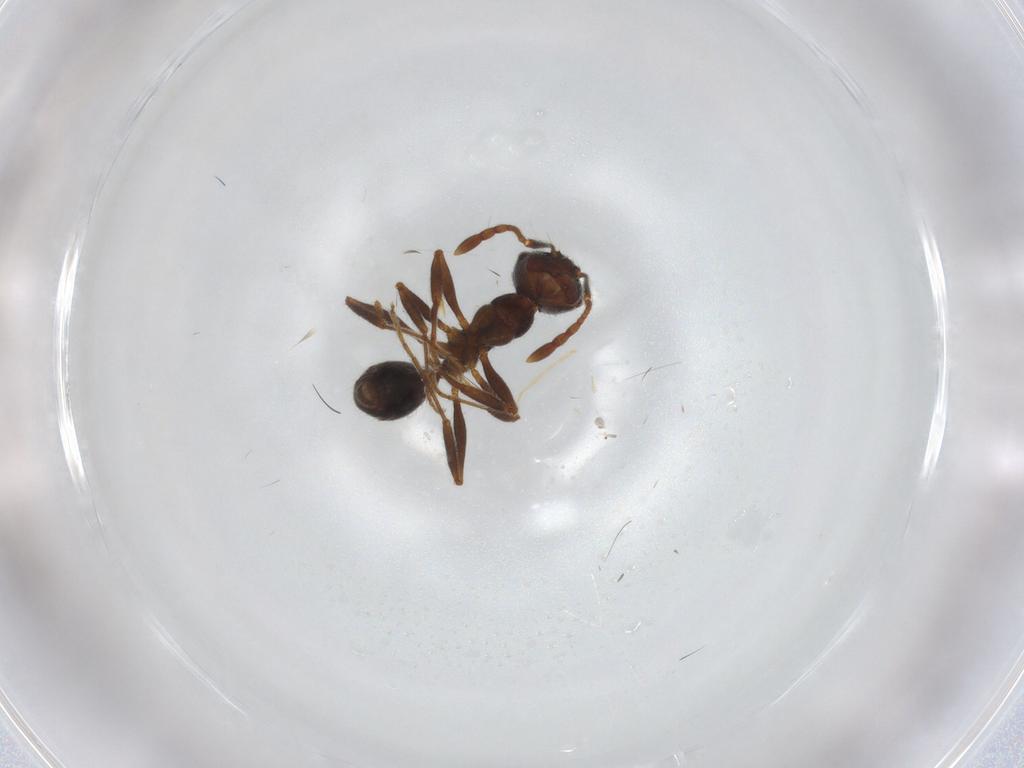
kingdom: Animalia
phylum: Arthropoda
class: Insecta
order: Hymenoptera
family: Formicidae
